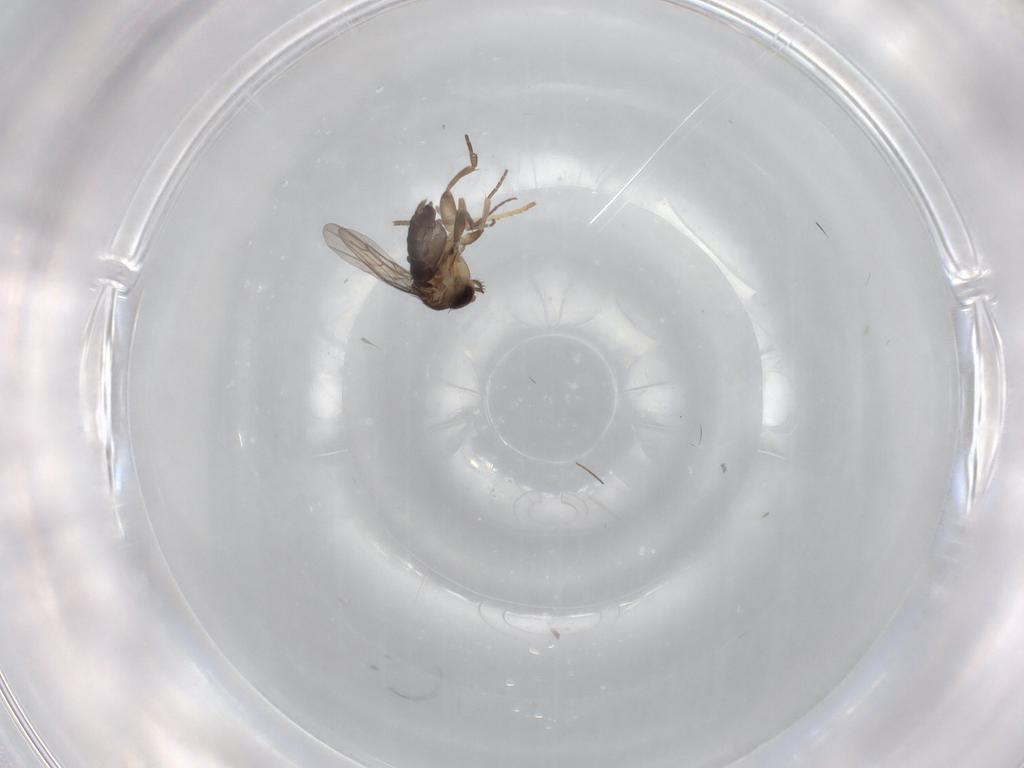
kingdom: Animalia
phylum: Arthropoda
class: Insecta
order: Diptera
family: Phoridae
